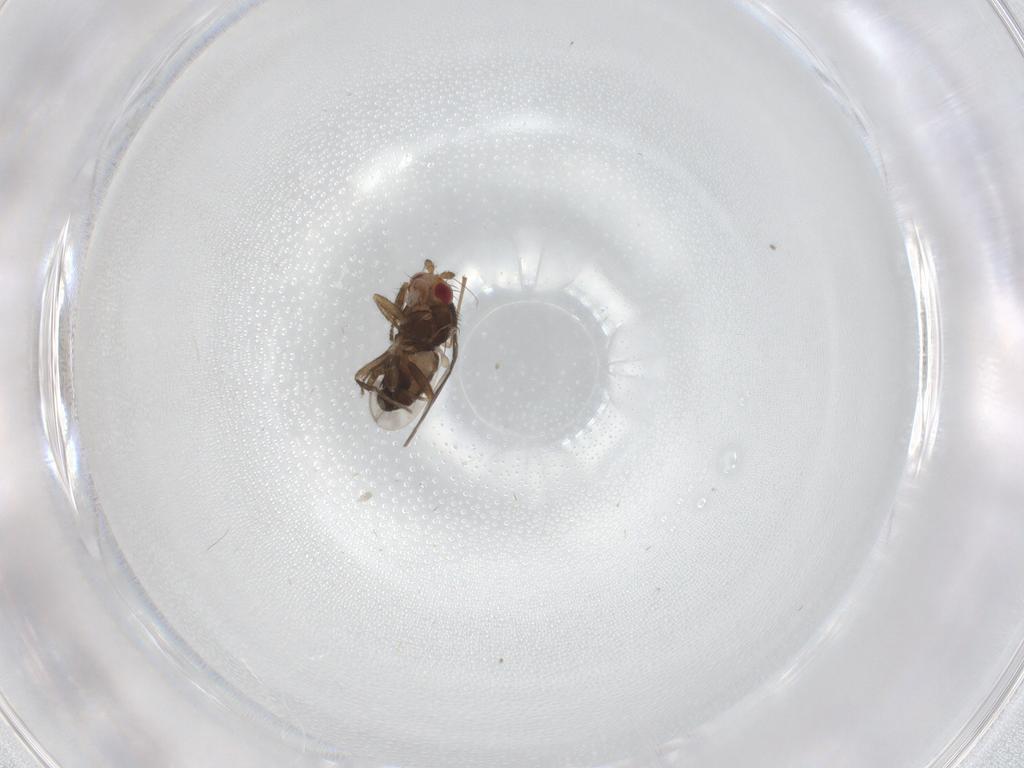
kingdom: Animalia
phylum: Arthropoda
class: Insecta
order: Diptera
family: Sphaeroceridae
